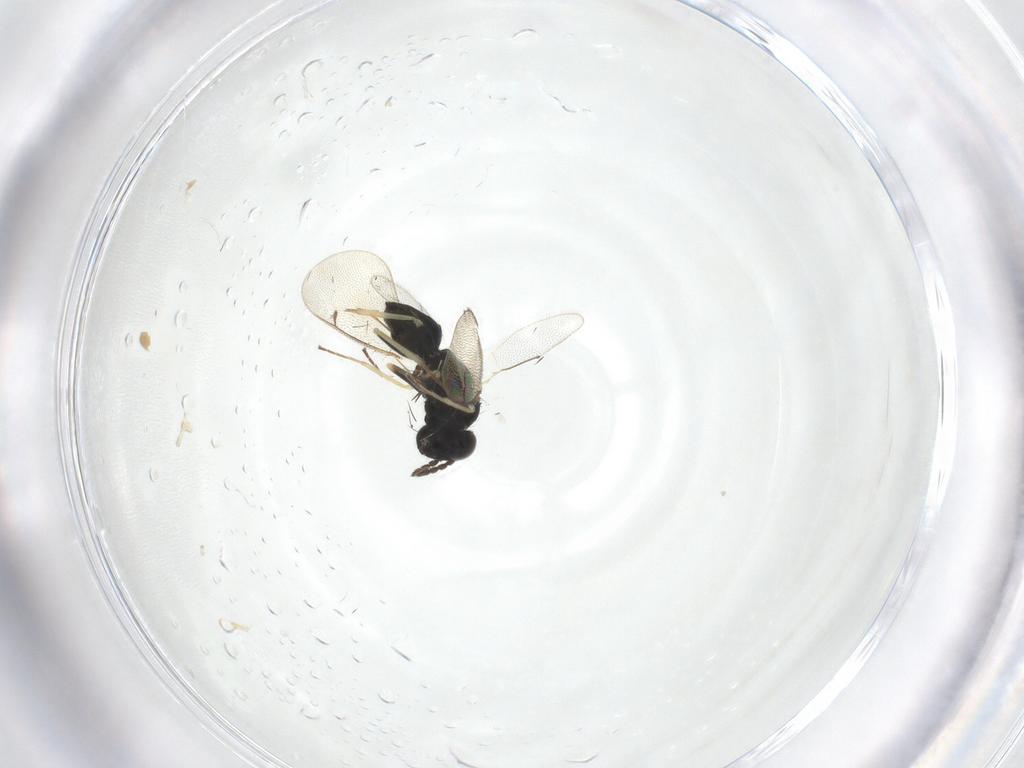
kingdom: Animalia
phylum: Arthropoda
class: Insecta
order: Hymenoptera
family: Eulophidae
